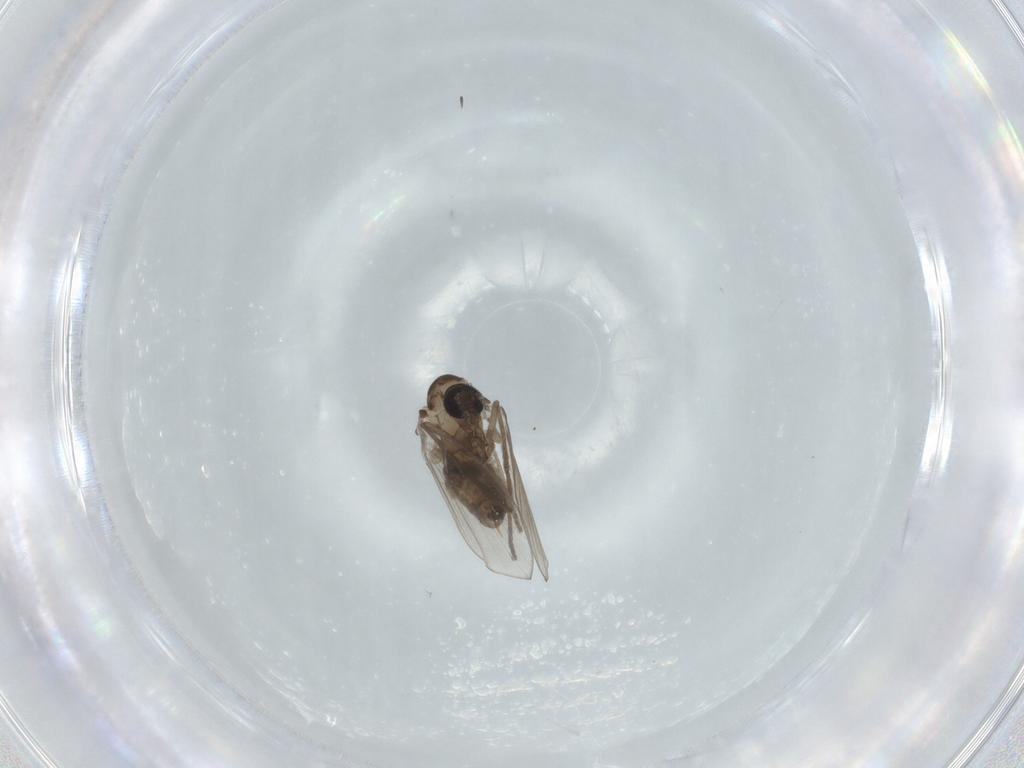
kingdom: Animalia
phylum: Arthropoda
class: Insecta
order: Diptera
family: Psychodidae
